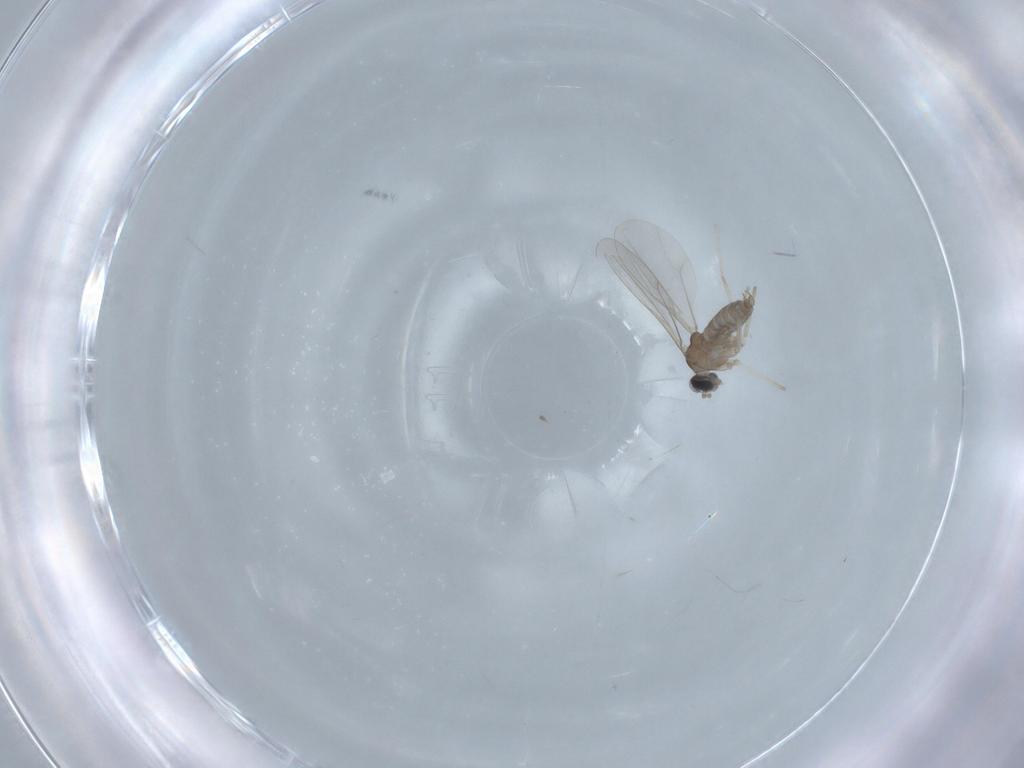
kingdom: Animalia
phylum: Arthropoda
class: Insecta
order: Diptera
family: Cecidomyiidae
